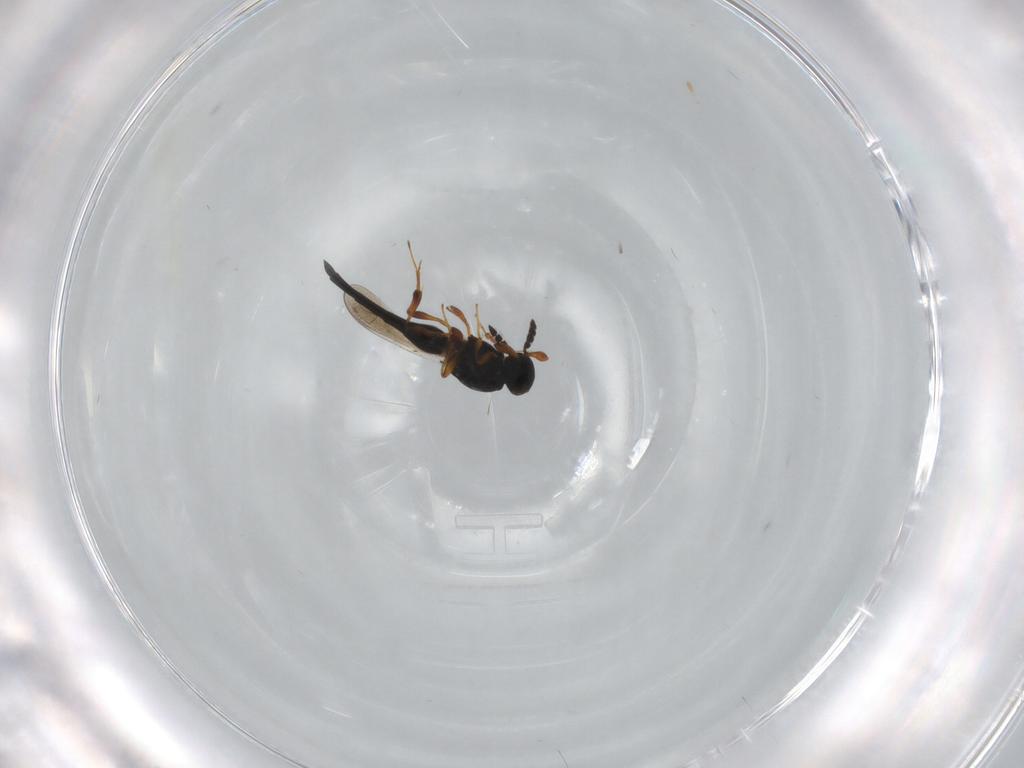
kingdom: Animalia
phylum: Arthropoda
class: Insecta
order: Hymenoptera
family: Platygastridae
